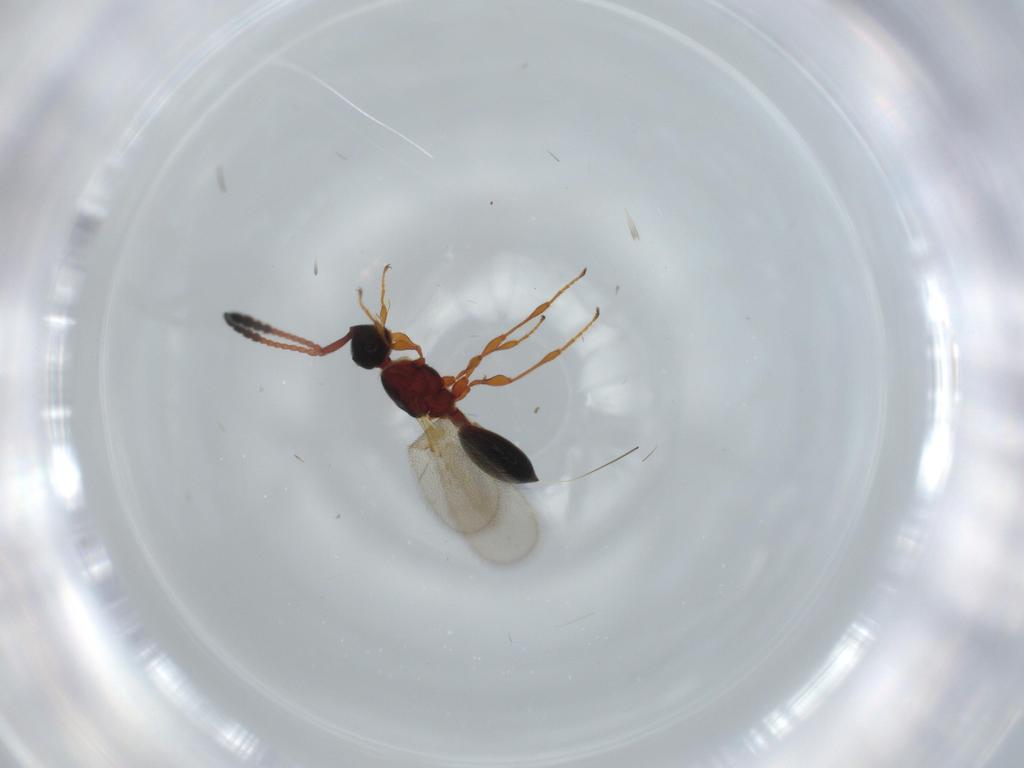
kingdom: Animalia
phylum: Arthropoda
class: Insecta
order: Hymenoptera
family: Diapriidae
